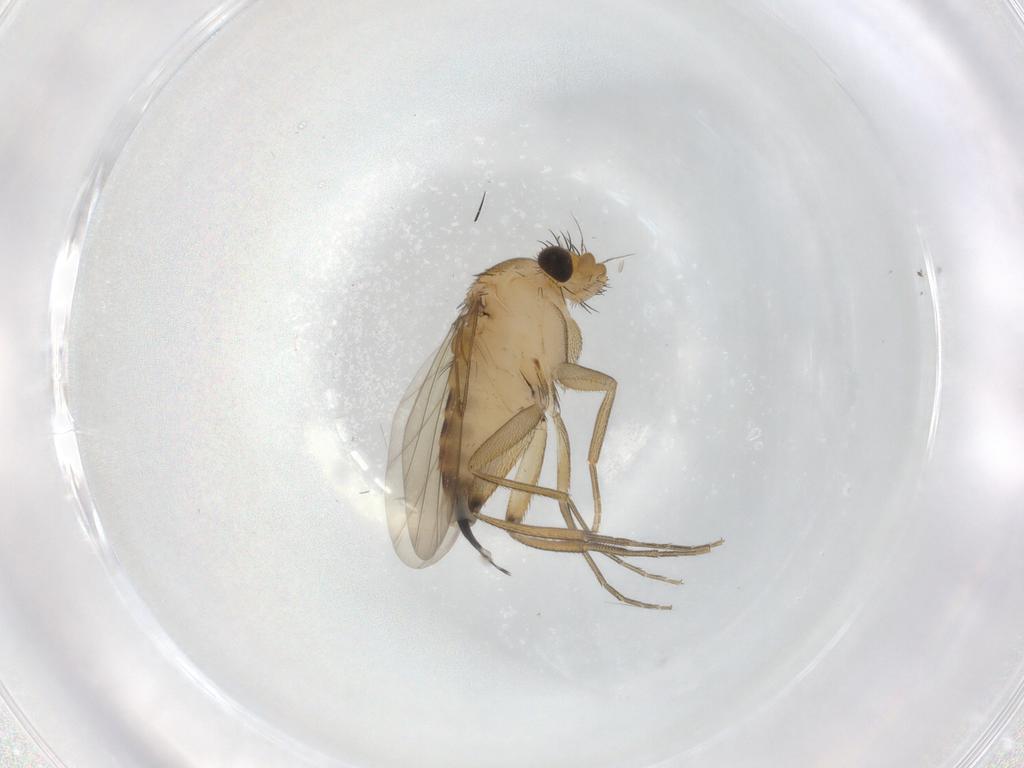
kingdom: Animalia
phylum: Arthropoda
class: Insecta
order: Diptera
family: Phoridae
